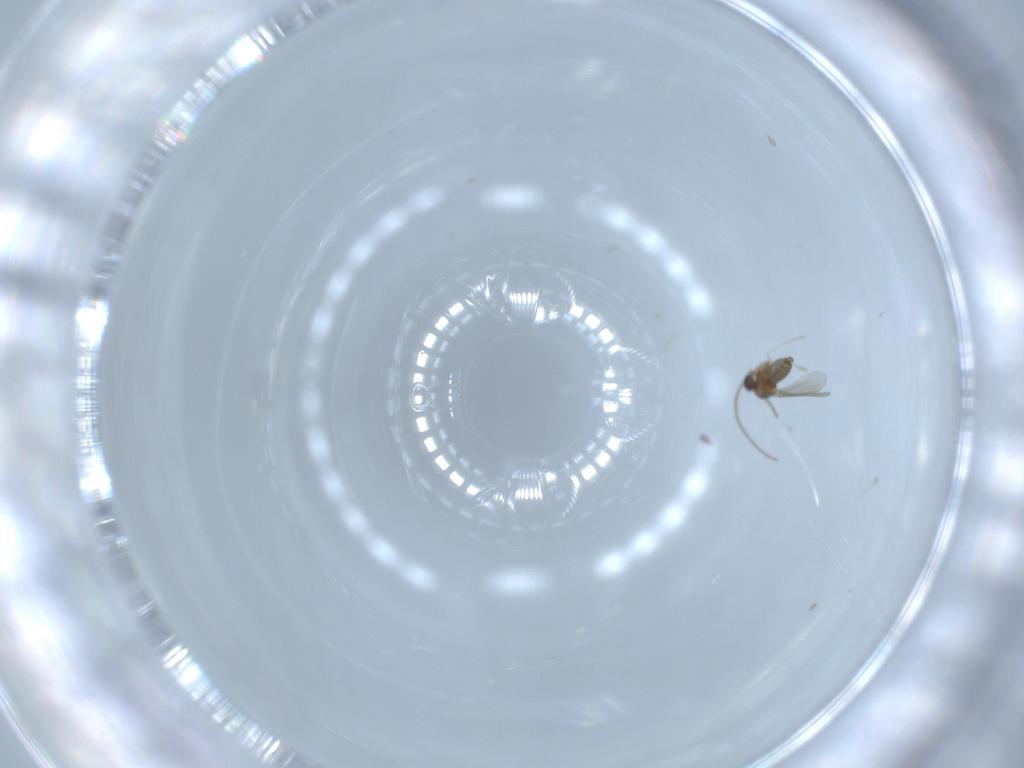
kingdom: Animalia
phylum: Arthropoda
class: Insecta
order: Diptera
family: Cecidomyiidae
